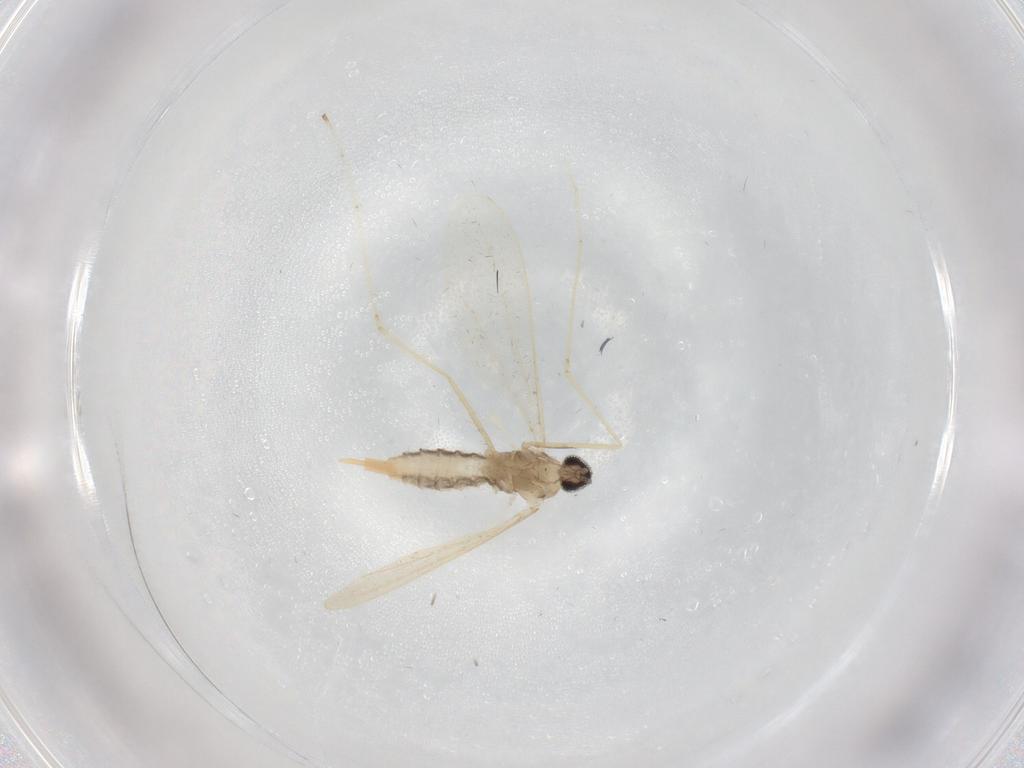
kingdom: Animalia
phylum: Arthropoda
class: Insecta
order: Diptera
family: Cecidomyiidae
